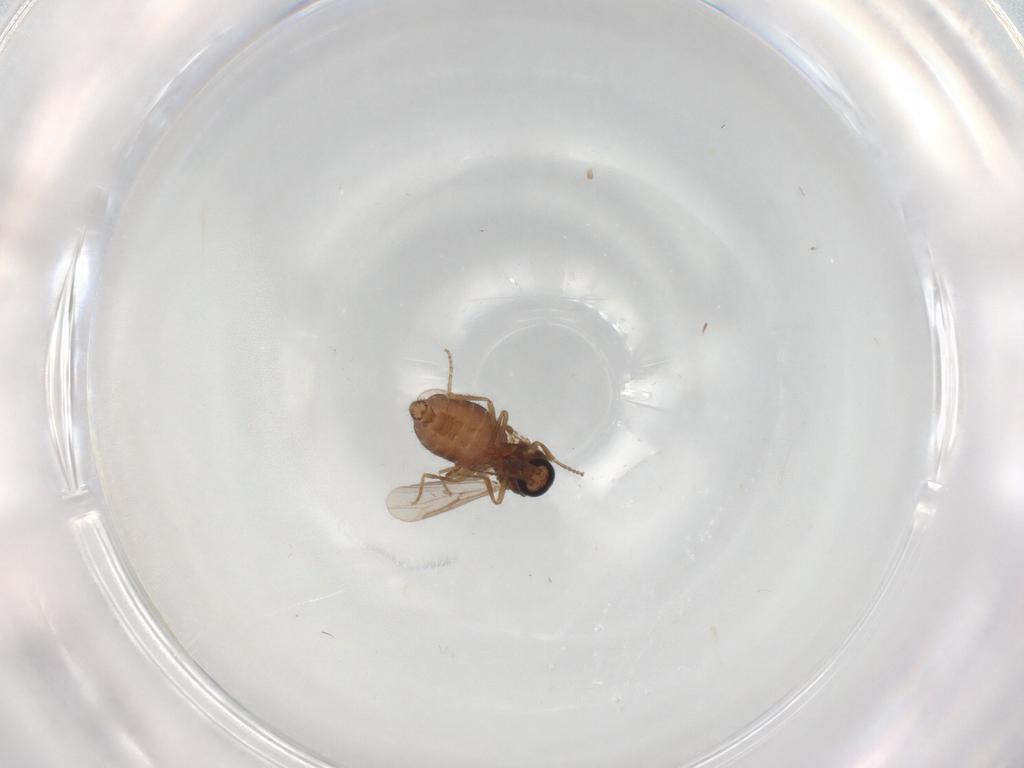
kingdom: Animalia
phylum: Arthropoda
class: Insecta
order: Diptera
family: Ceratopogonidae
